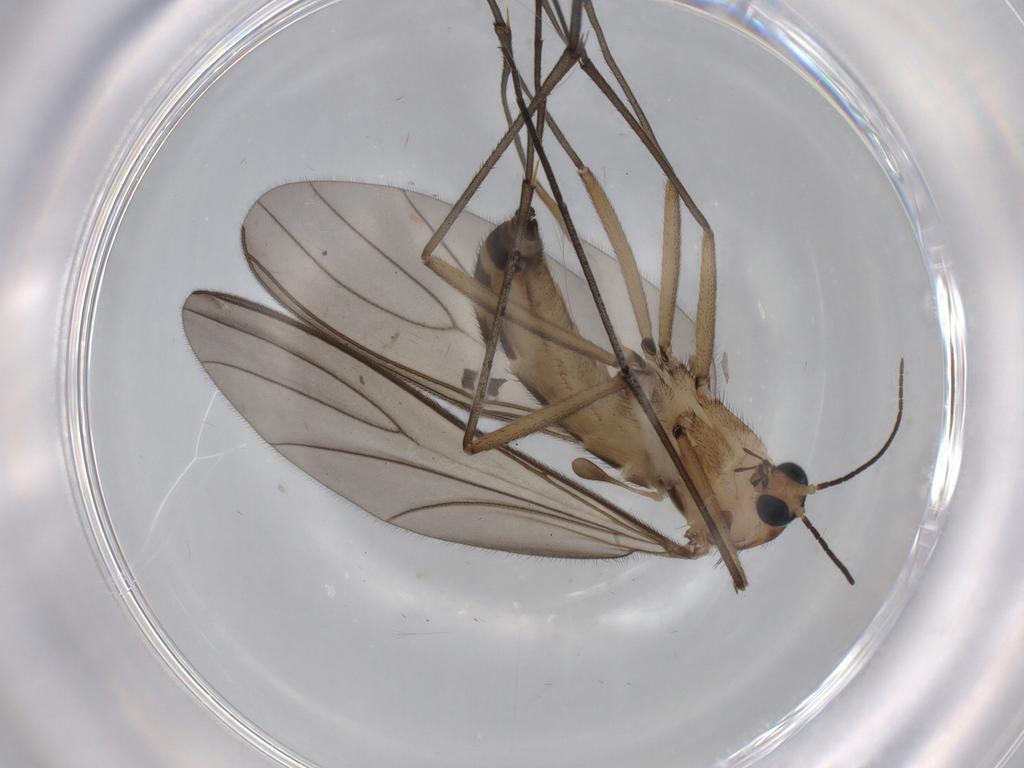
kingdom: Animalia
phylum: Arthropoda
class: Insecta
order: Diptera
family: Sciaridae
